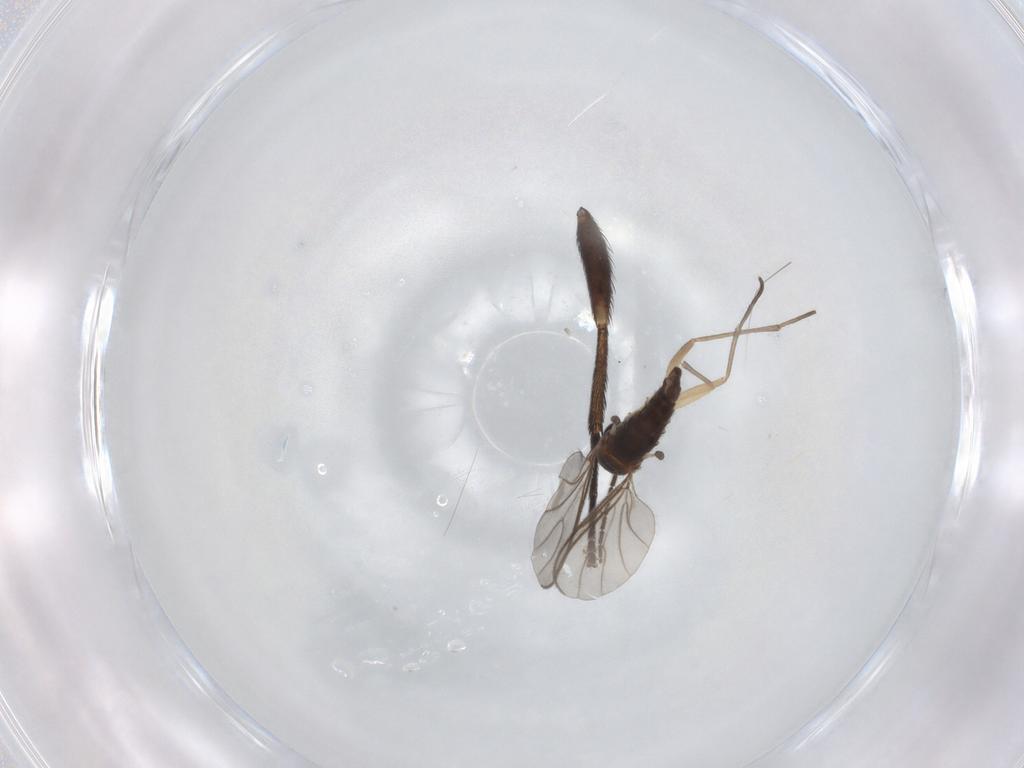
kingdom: Animalia
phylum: Arthropoda
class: Insecta
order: Diptera
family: Sciaridae
